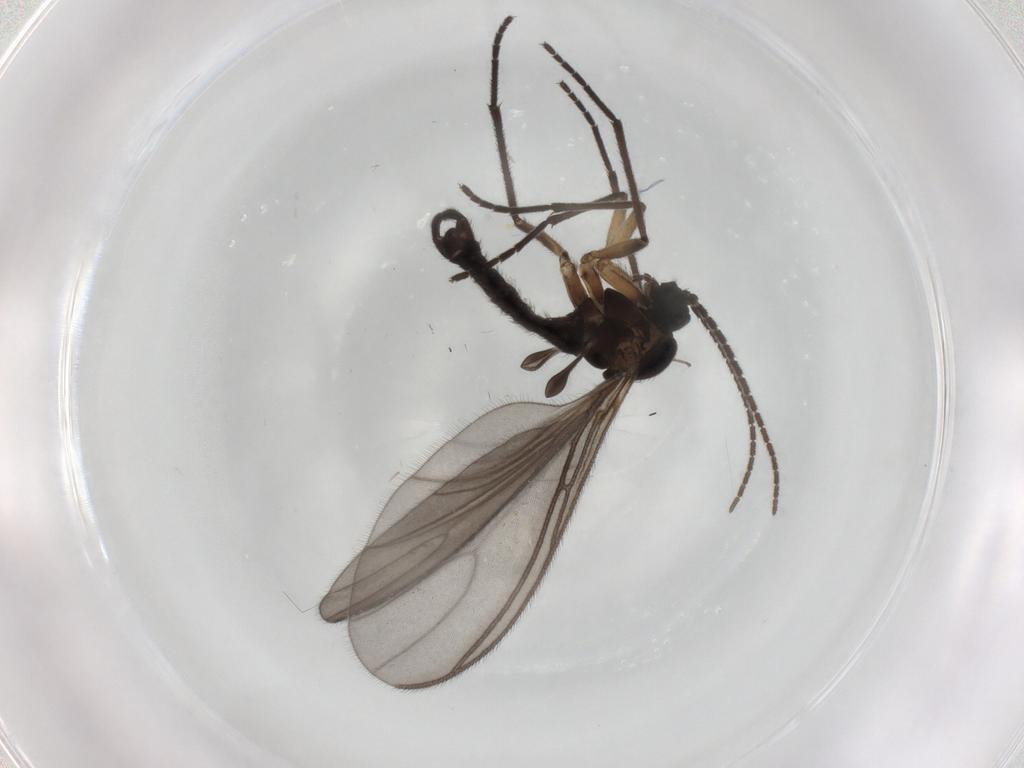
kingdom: Animalia
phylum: Arthropoda
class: Insecta
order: Diptera
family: Sciaridae
